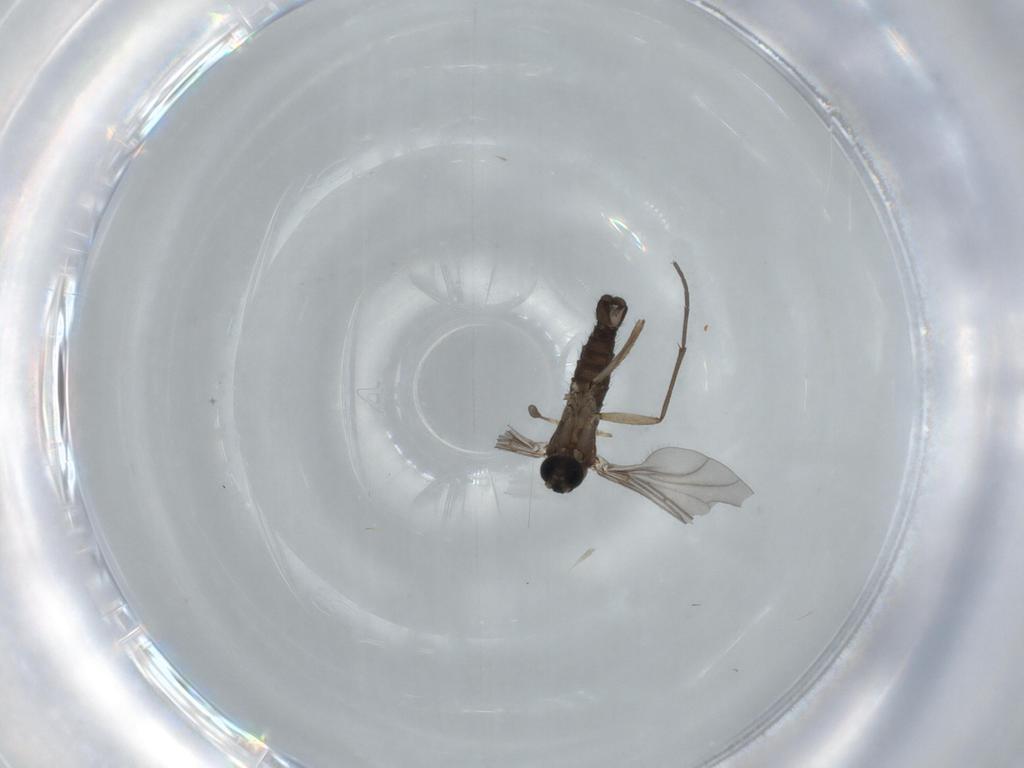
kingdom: Animalia
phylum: Arthropoda
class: Insecta
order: Diptera
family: Sciaridae
